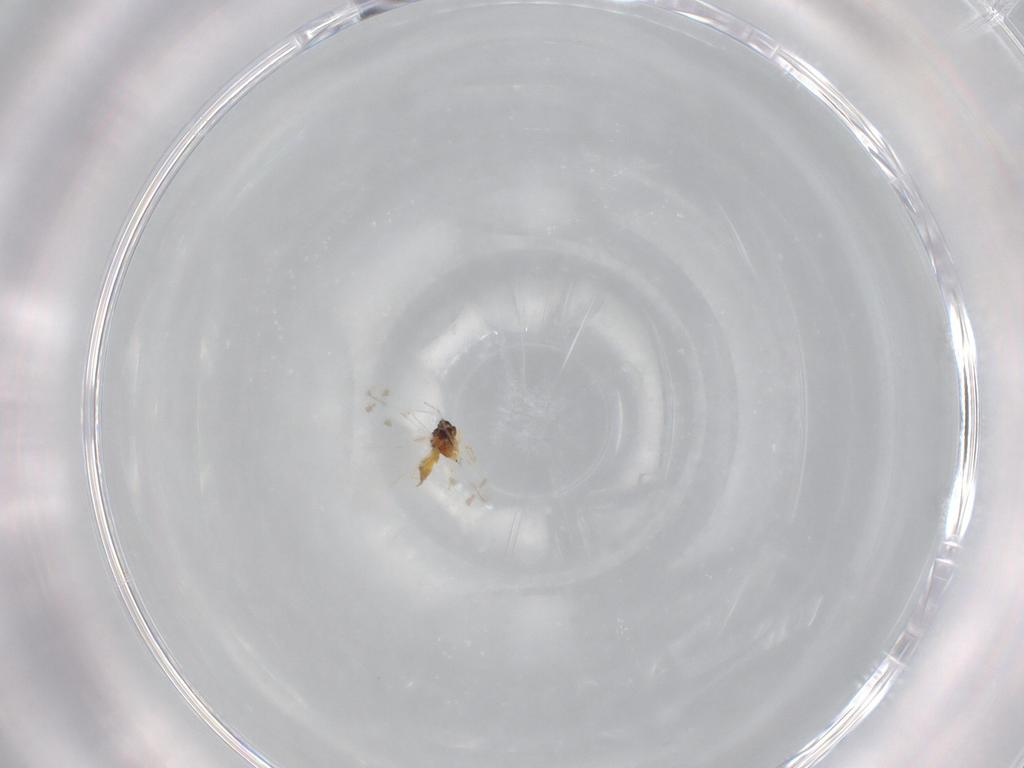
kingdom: Animalia
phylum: Arthropoda
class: Insecta
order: Hemiptera
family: Aleyrodidae
